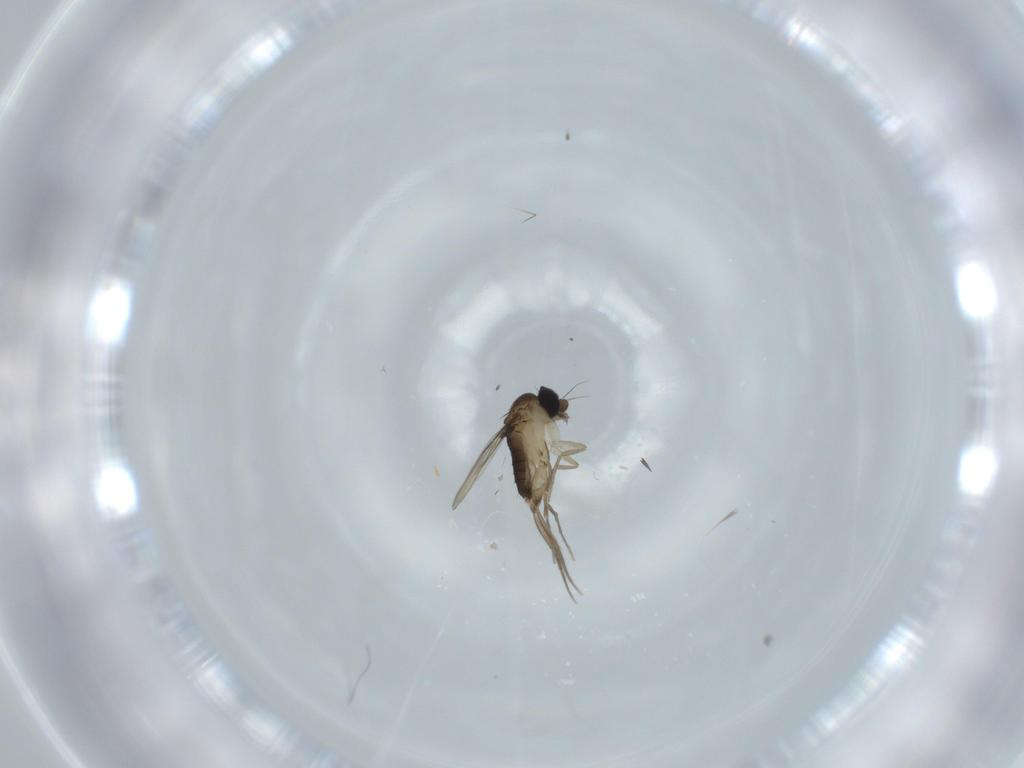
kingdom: Animalia
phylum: Arthropoda
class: Insecta
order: Diptera
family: Phoridae
